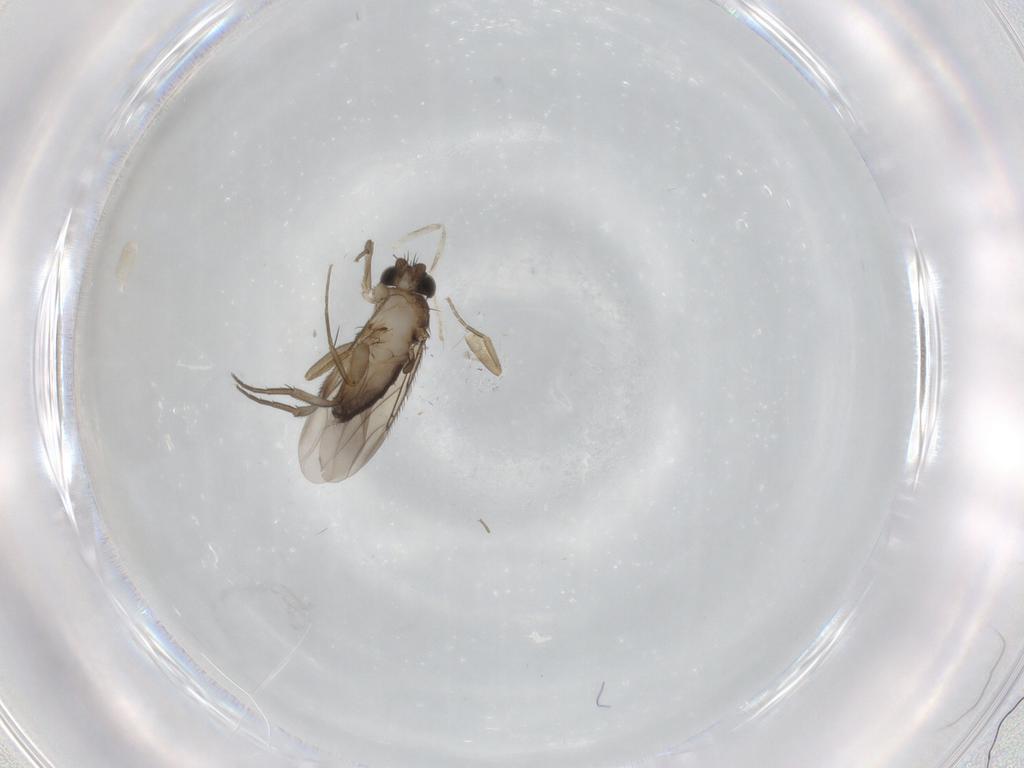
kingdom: Animalia
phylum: Arthropoda
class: Insecta
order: Diptera
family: Phoridae
